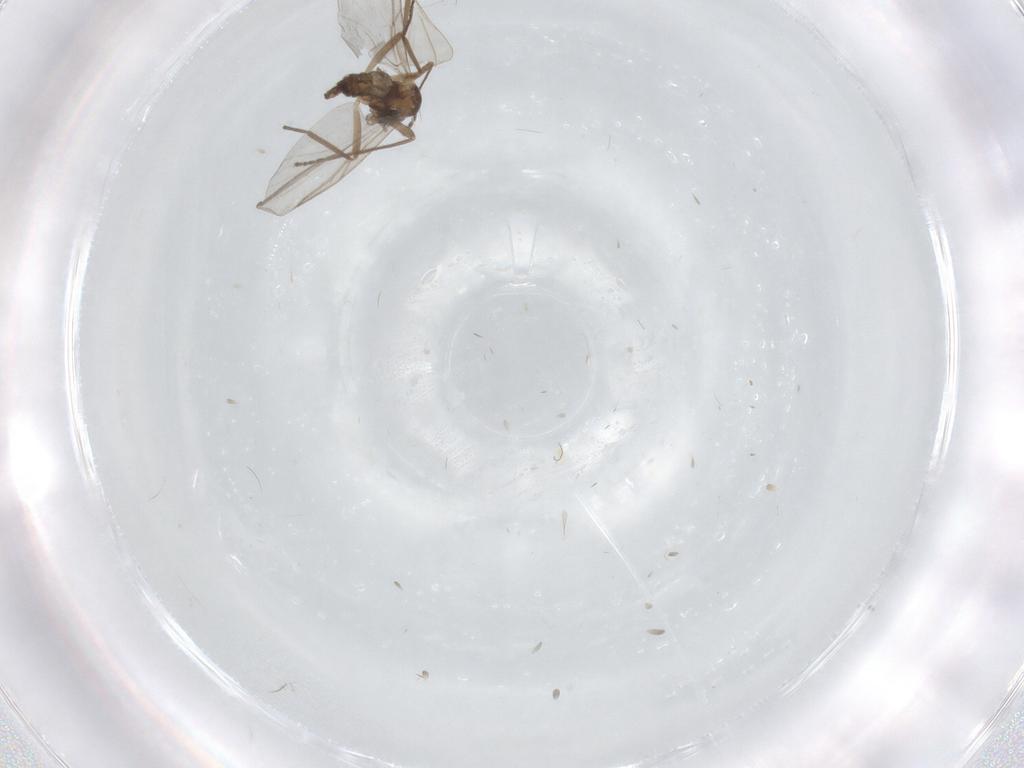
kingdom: Animalia
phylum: Arthropoda
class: Insecta
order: Diptera
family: Cecidomyiidae
